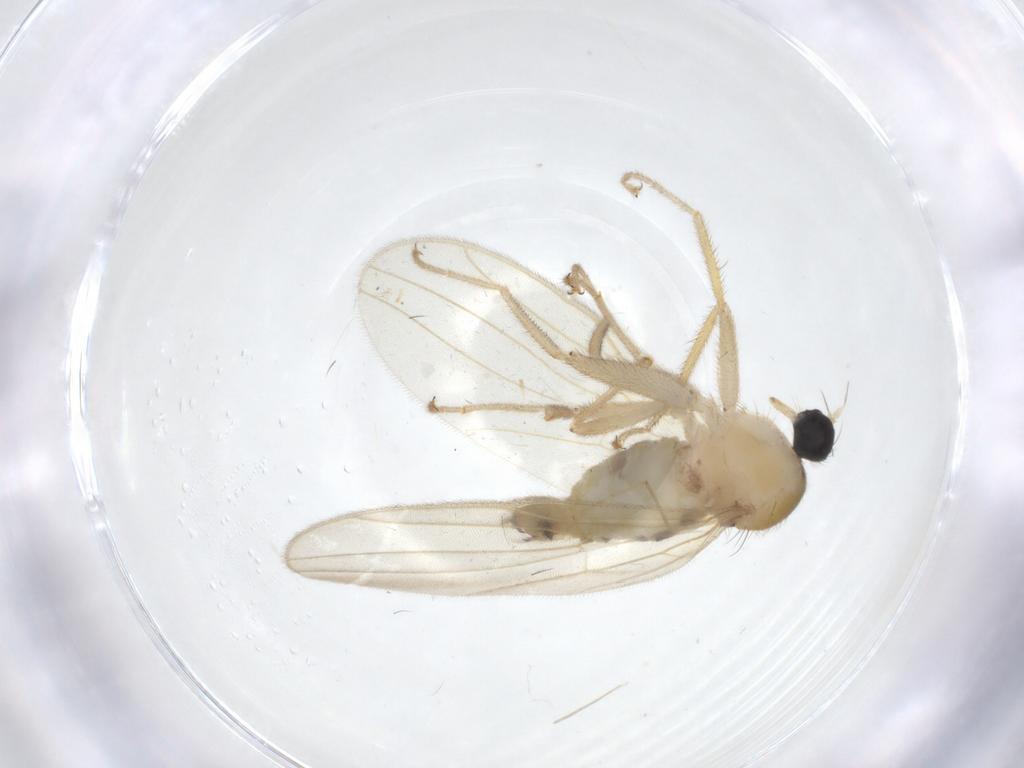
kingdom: Animalia
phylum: Arthropoda
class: Insecta
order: Diptera
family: Hybotidae
